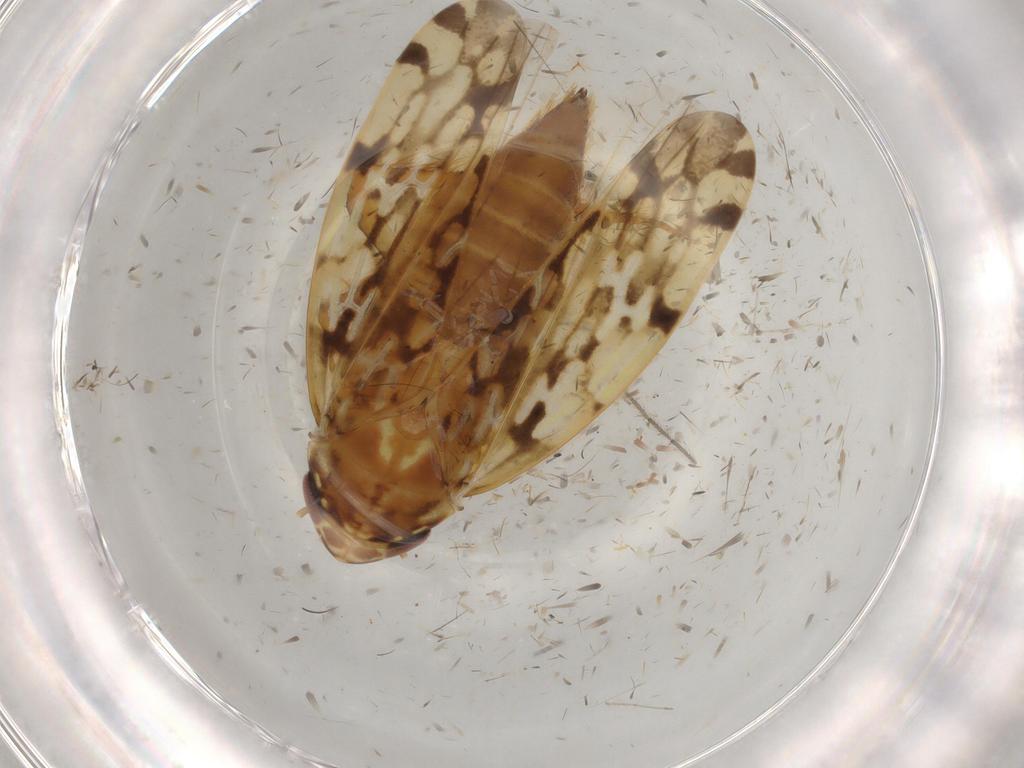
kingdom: Animalia
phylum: Arthropoda
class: Insecta
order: Hemiptera
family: Cicadellidae
